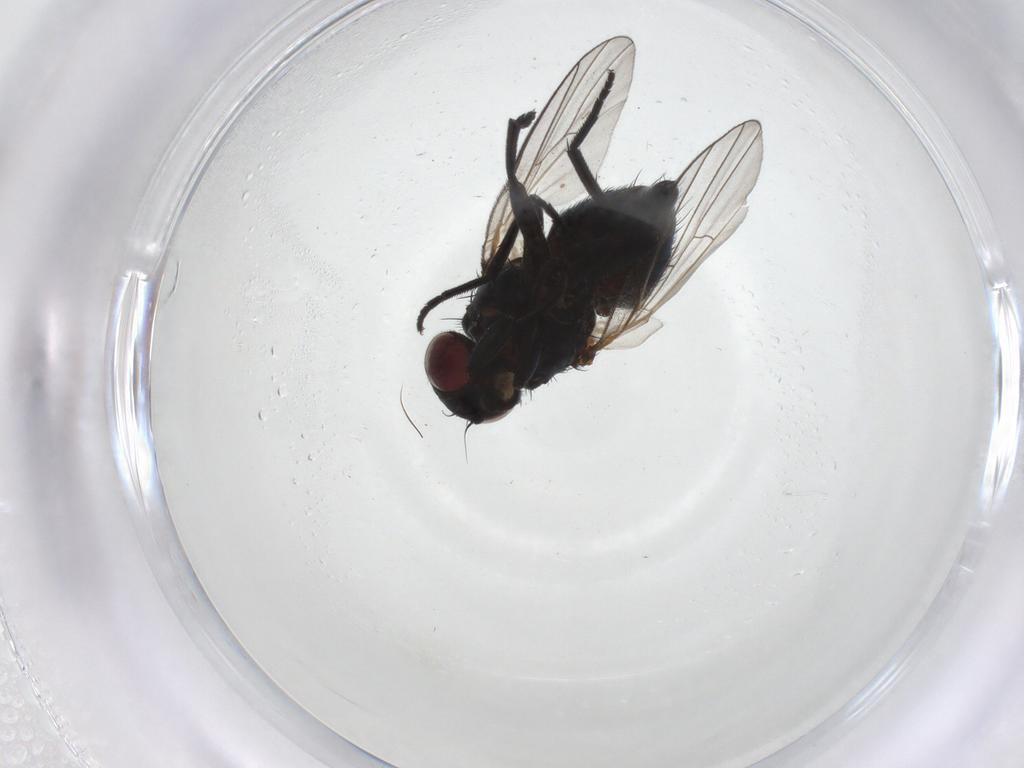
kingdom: Animalia
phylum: Arthropoda
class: Insecta
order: Diptera
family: Agromyzidae
